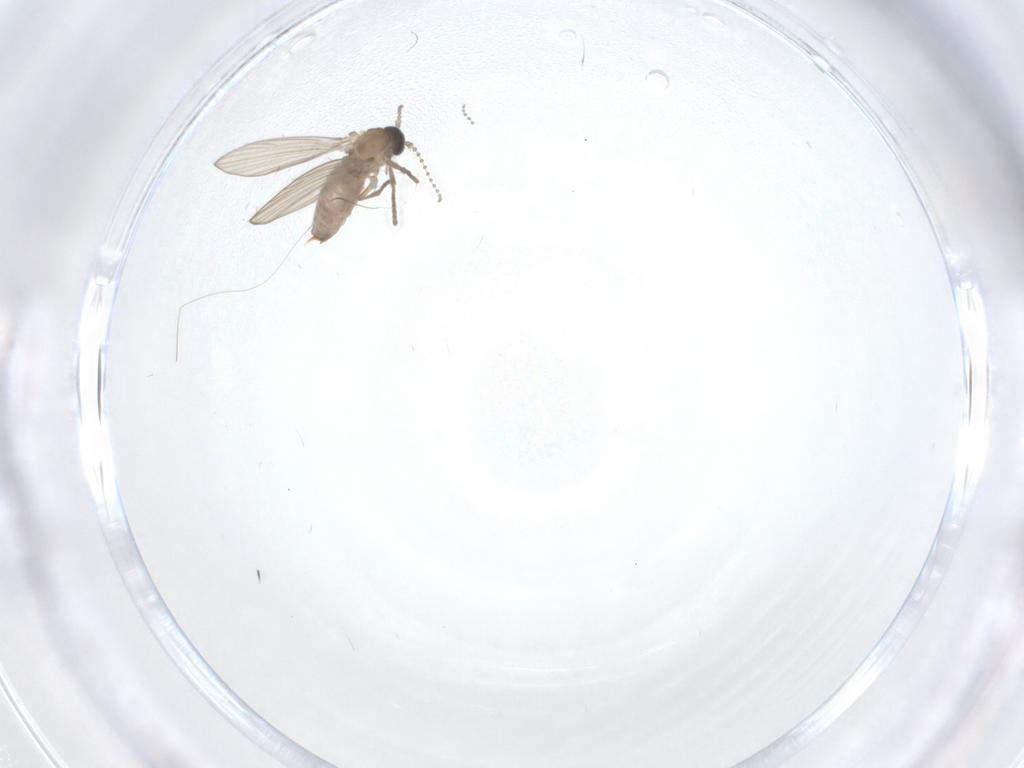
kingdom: Animalia
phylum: Arthropoda
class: Insecta
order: Diptera
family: Psychodidae
